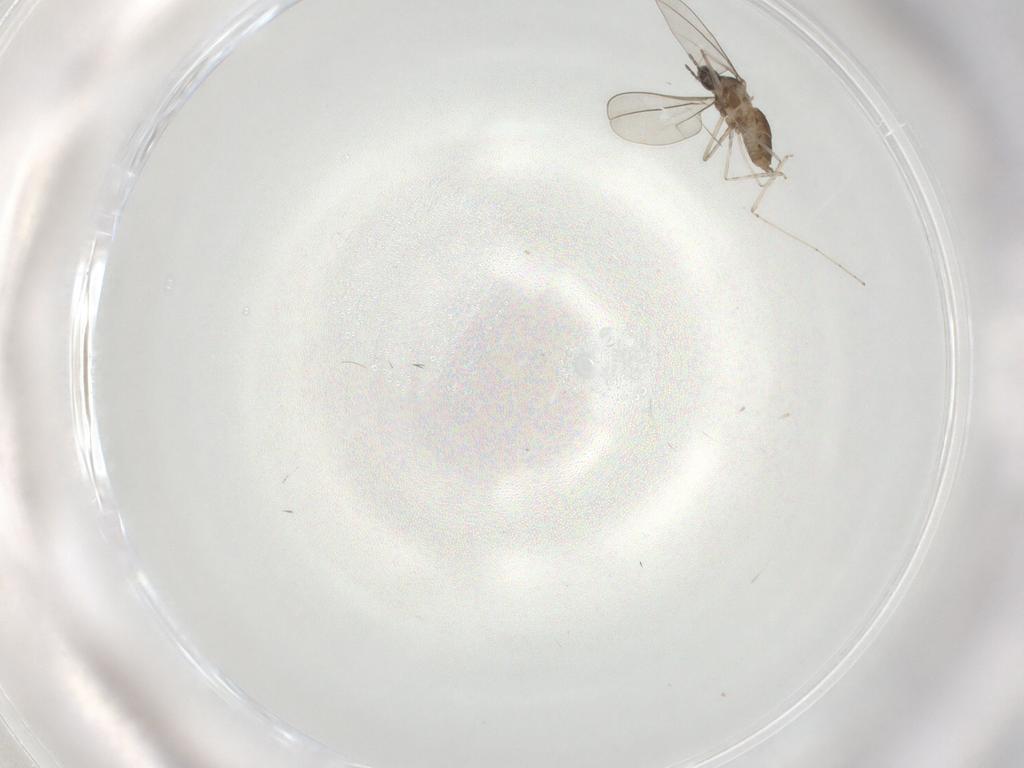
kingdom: Animalia
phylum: Arthropoda
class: Insecta
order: Diptera
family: Cecidomyiidae
